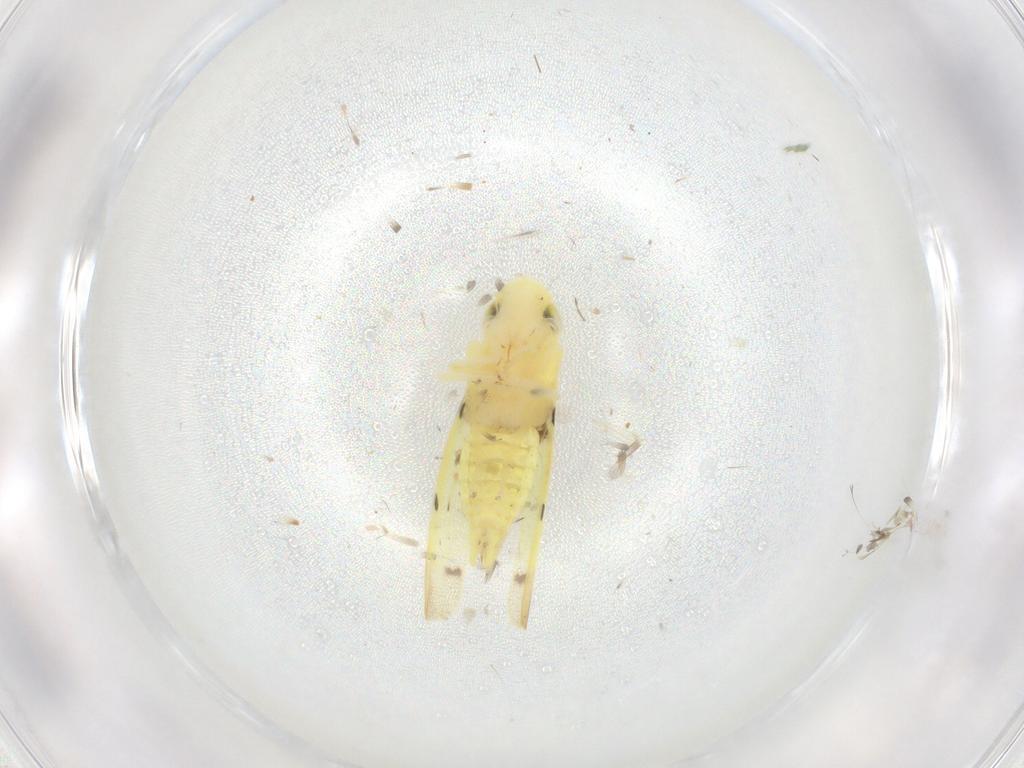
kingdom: Animalia
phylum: Arthropoda
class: Insecta
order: Hemiptera
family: Cicadellidae
